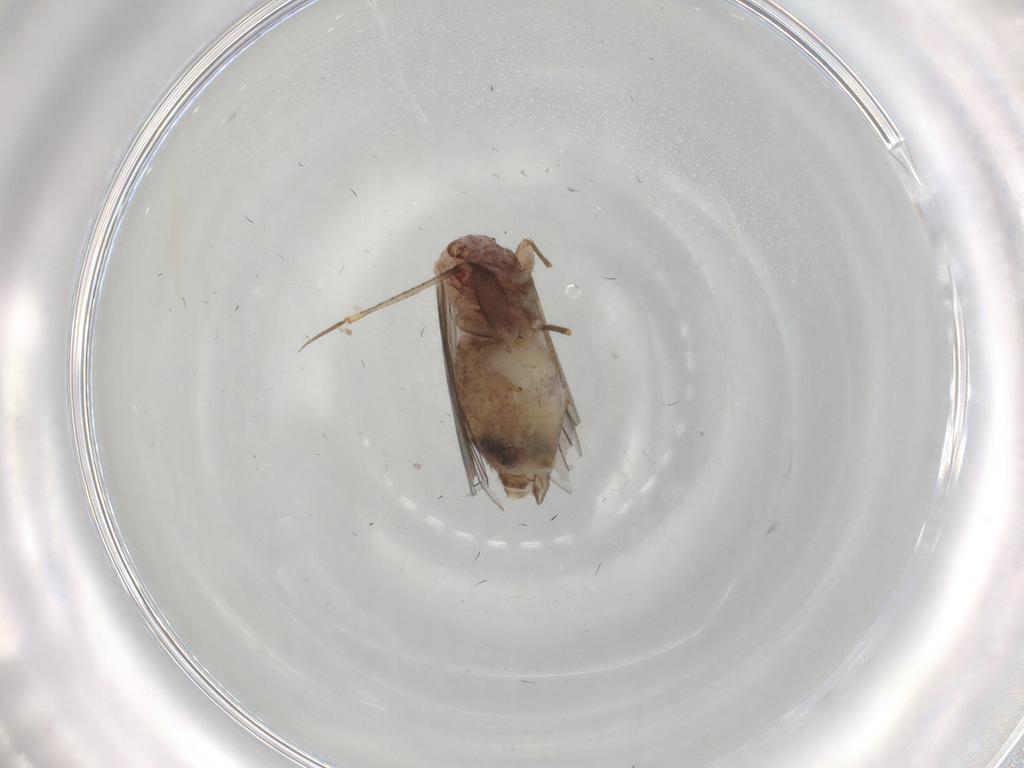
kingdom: Animalia
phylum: Arthropoda
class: Insecta
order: Psocodea
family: Lepidopsocidae
